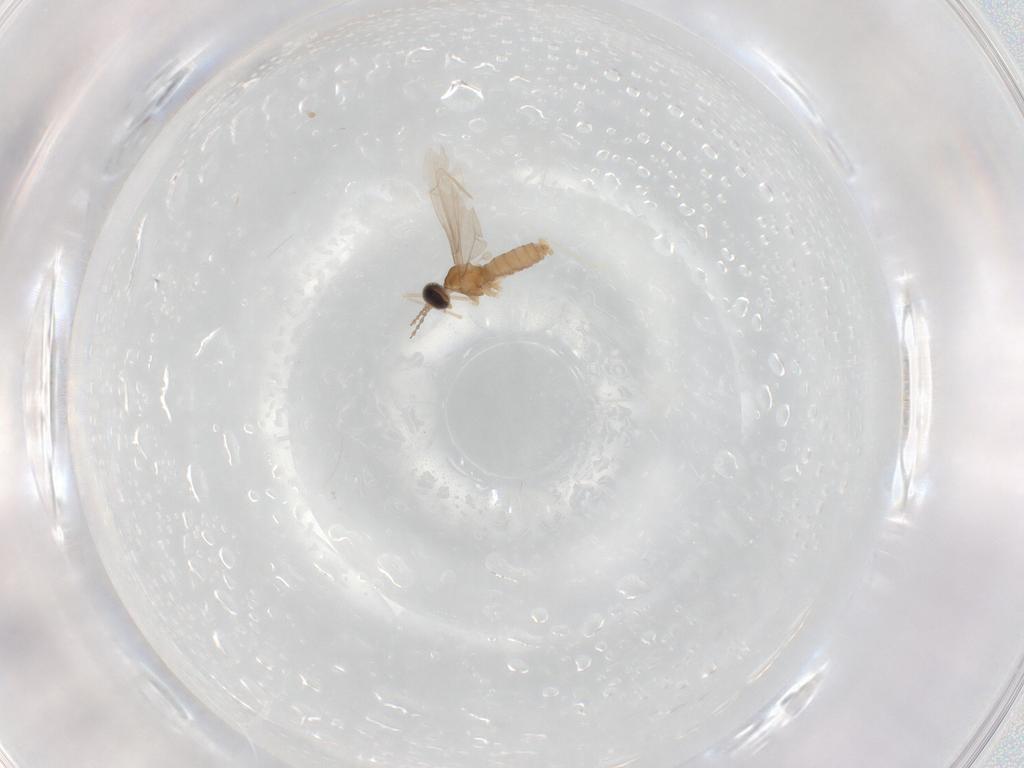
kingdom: Animalia
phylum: Arthropoda
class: Insecta
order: Diptera
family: Cecidomyiidae
